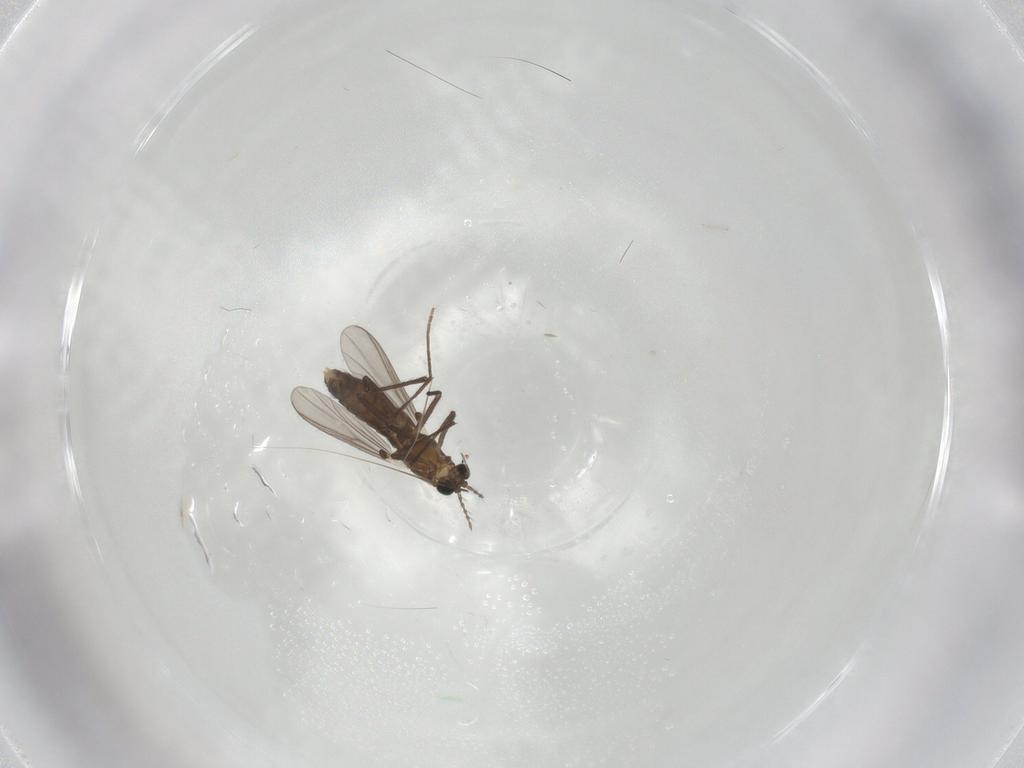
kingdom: Animalia
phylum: Arthropoda
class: Insecta
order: Diptera
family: Chironomidae
